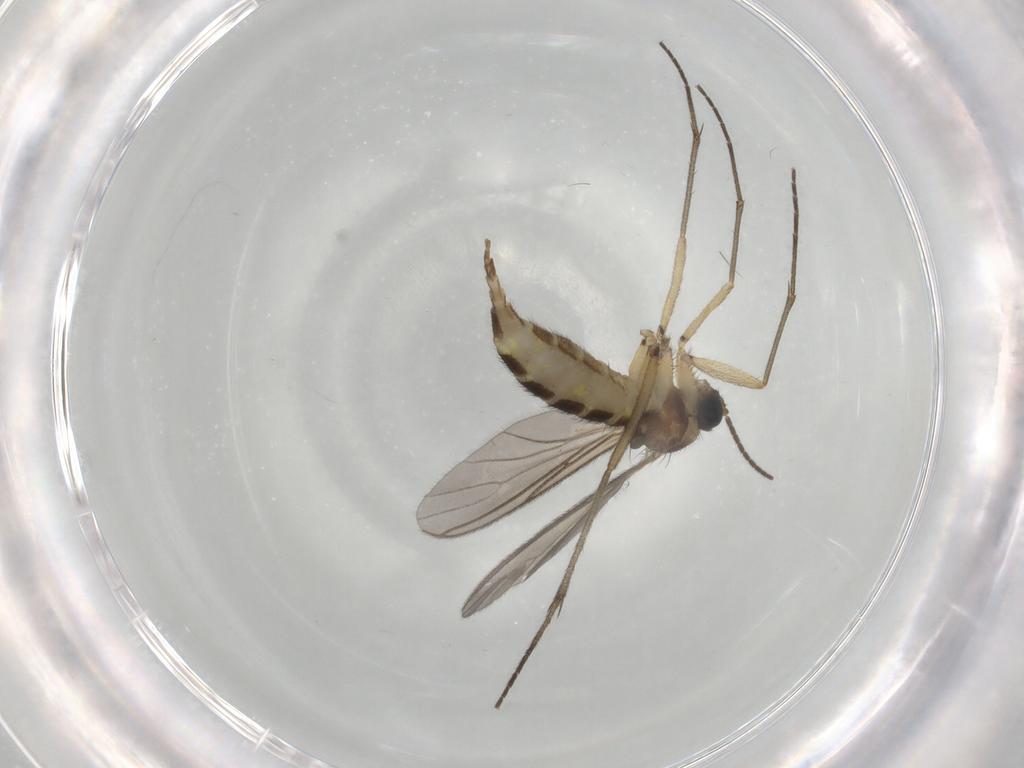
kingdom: Animalia
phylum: Arthropoda
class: Insecta
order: Diptera
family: Sciaridae
